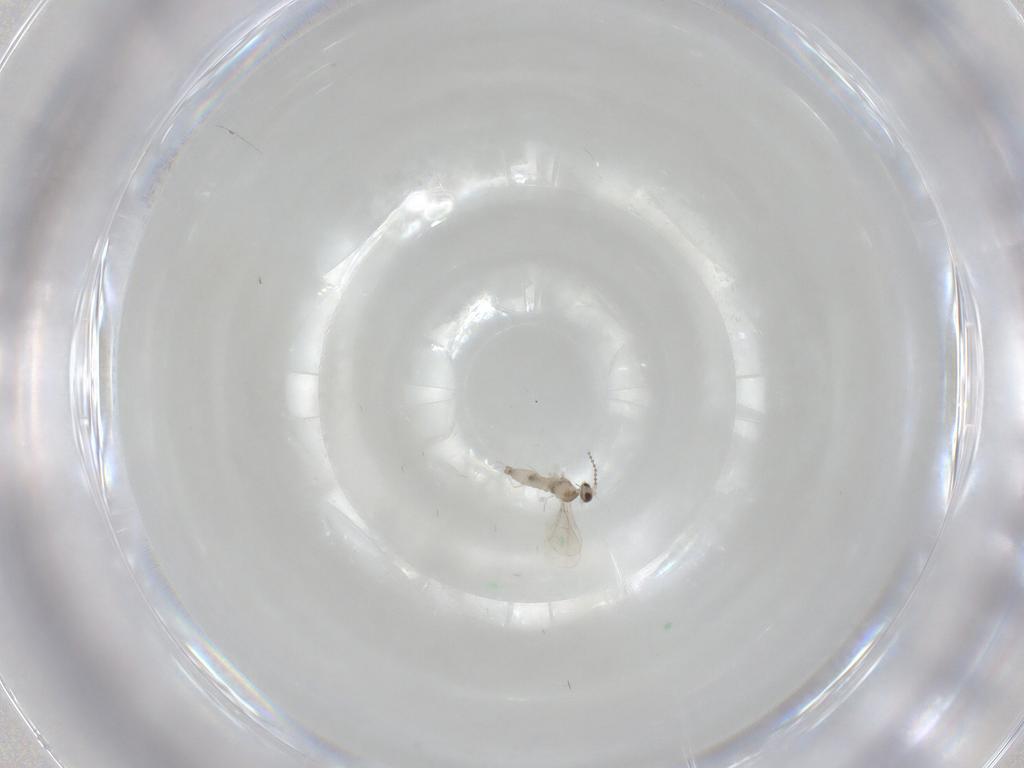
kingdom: Animalia
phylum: Arthropoda
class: Insecta
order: Diptera
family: Cecidomyiidae
